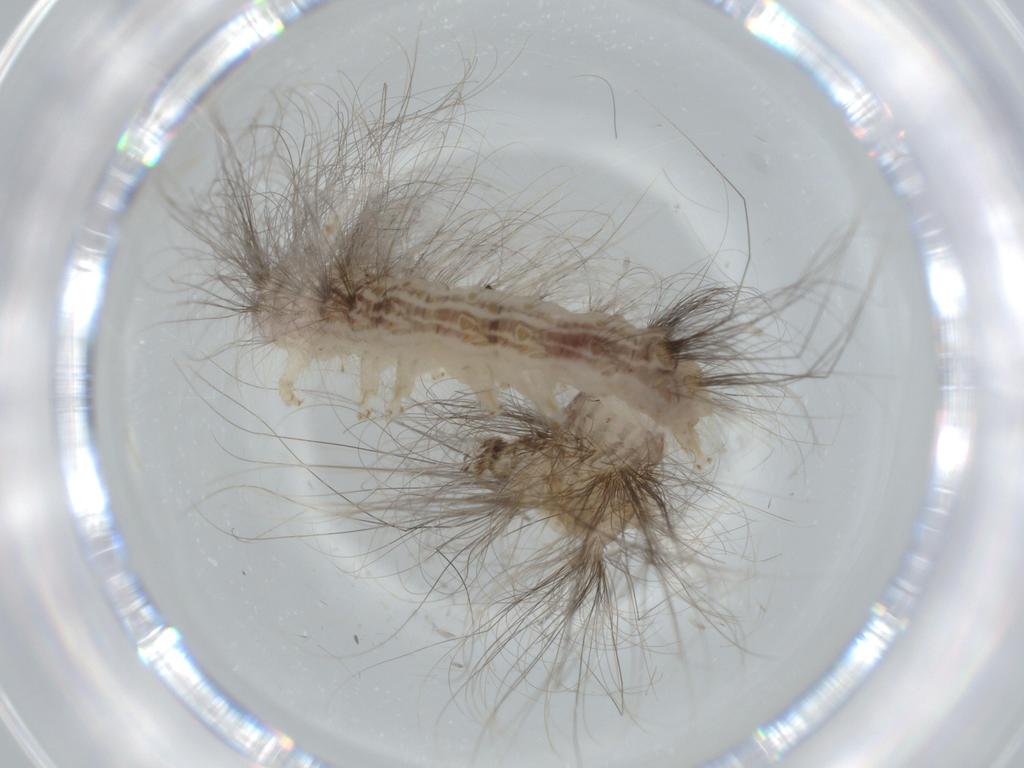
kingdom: Animalia
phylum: Arthropoda
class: Insecta
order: Lepidoptera
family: Apatelodidae
